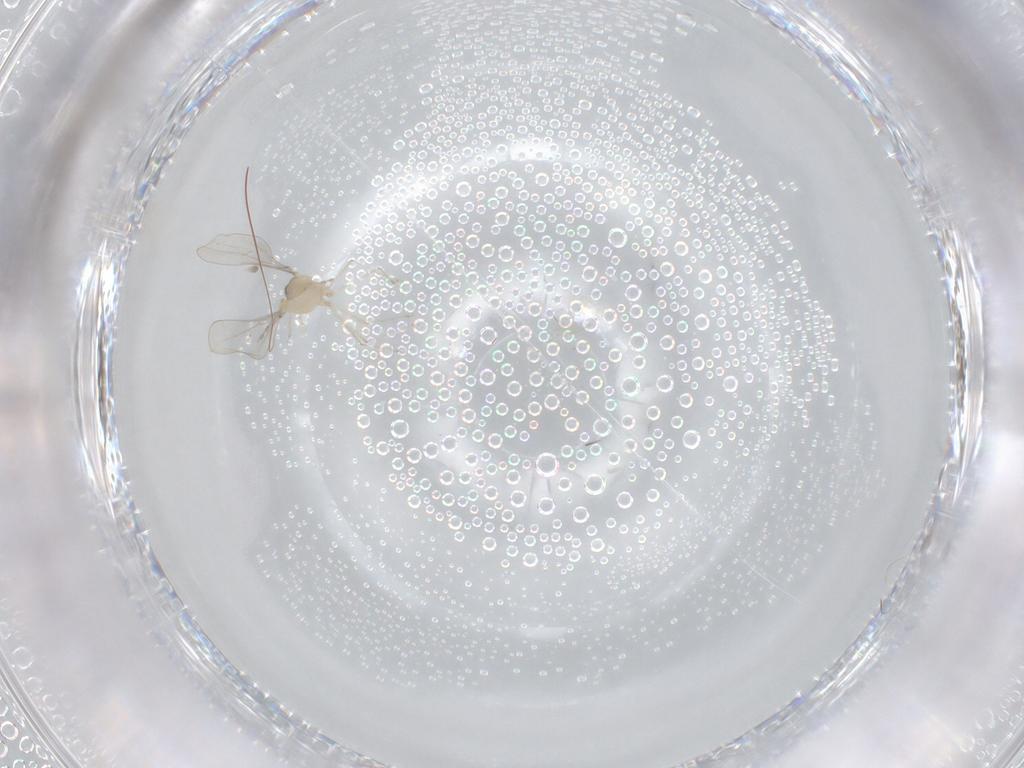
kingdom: Animalia
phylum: Arthropoda
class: Insecta
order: Diptera
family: Cecidomyiidae
